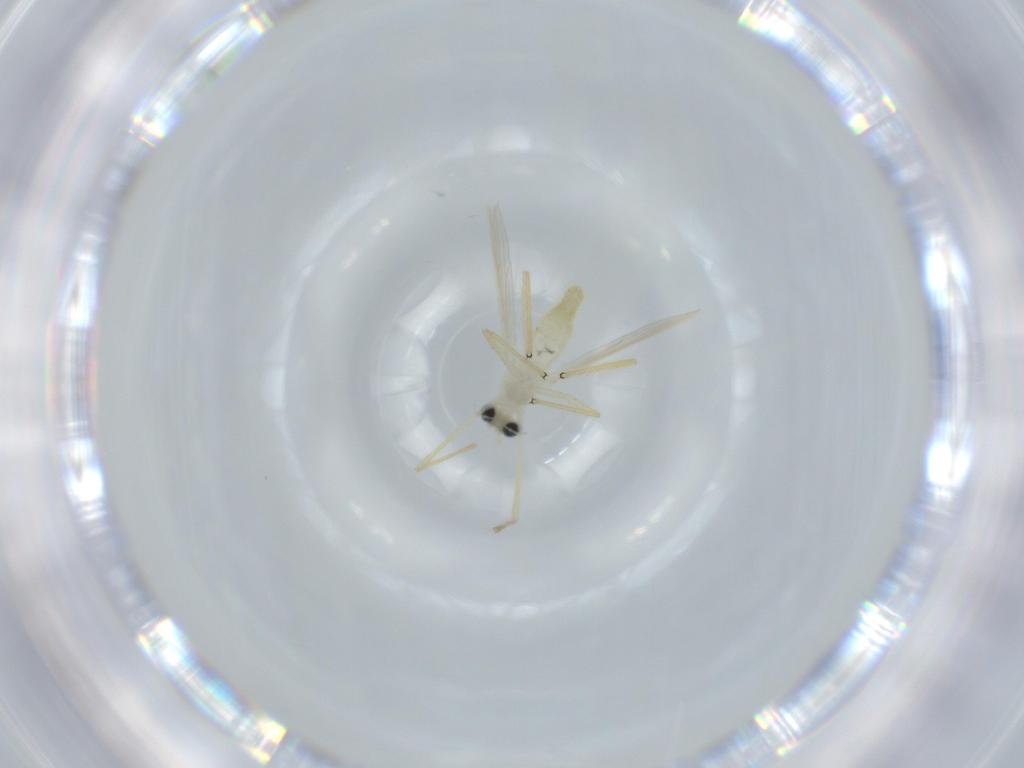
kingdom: Animalia
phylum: Arthropoda
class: Insecta
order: Diptera
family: Chironomidae
